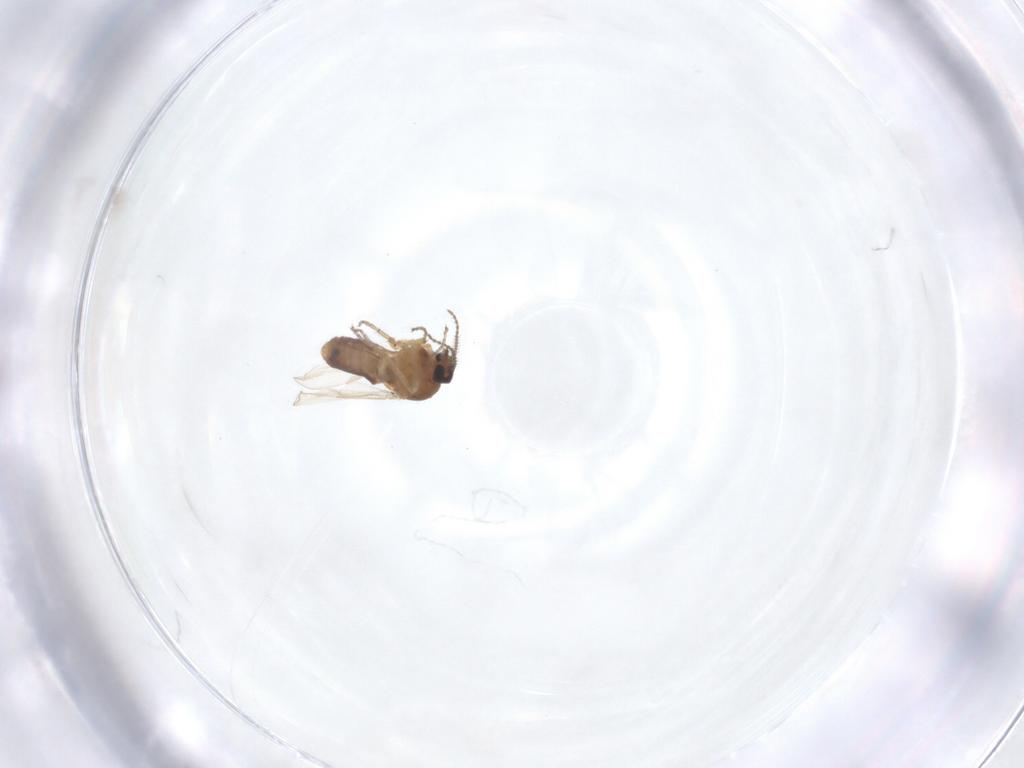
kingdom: Animalia
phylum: Arthropoda
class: Insecta
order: Diptera
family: Ceratopogonidae
